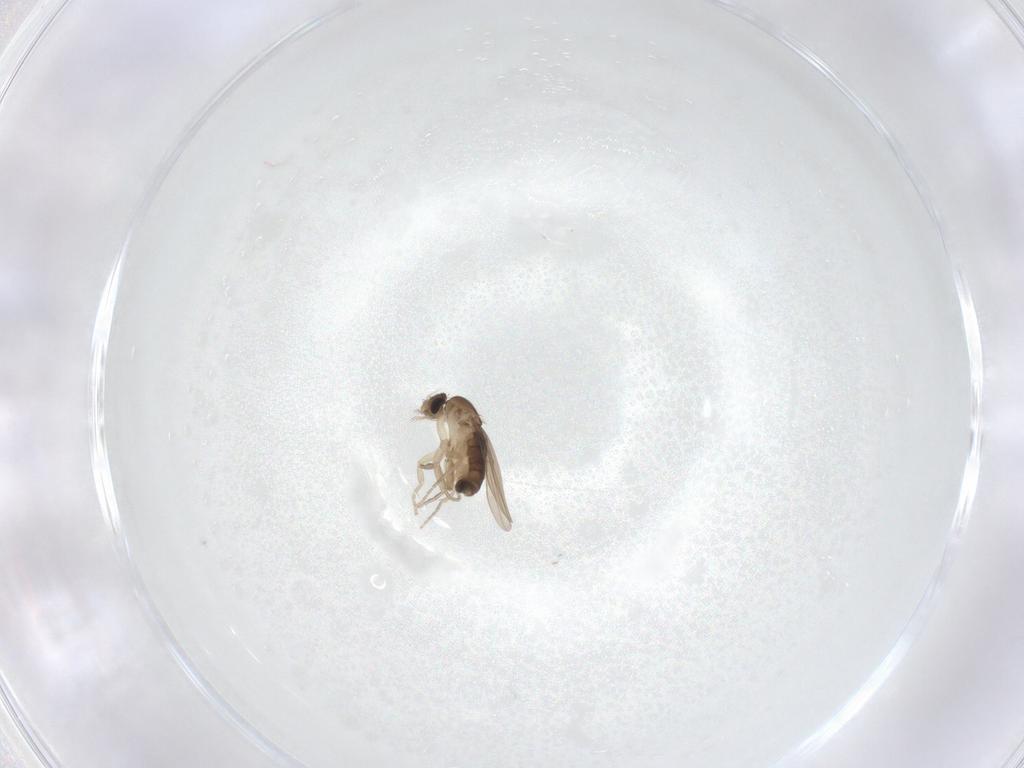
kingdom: Animalia
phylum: Arthropoda
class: Insecta
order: Diptera
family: Phoridae
